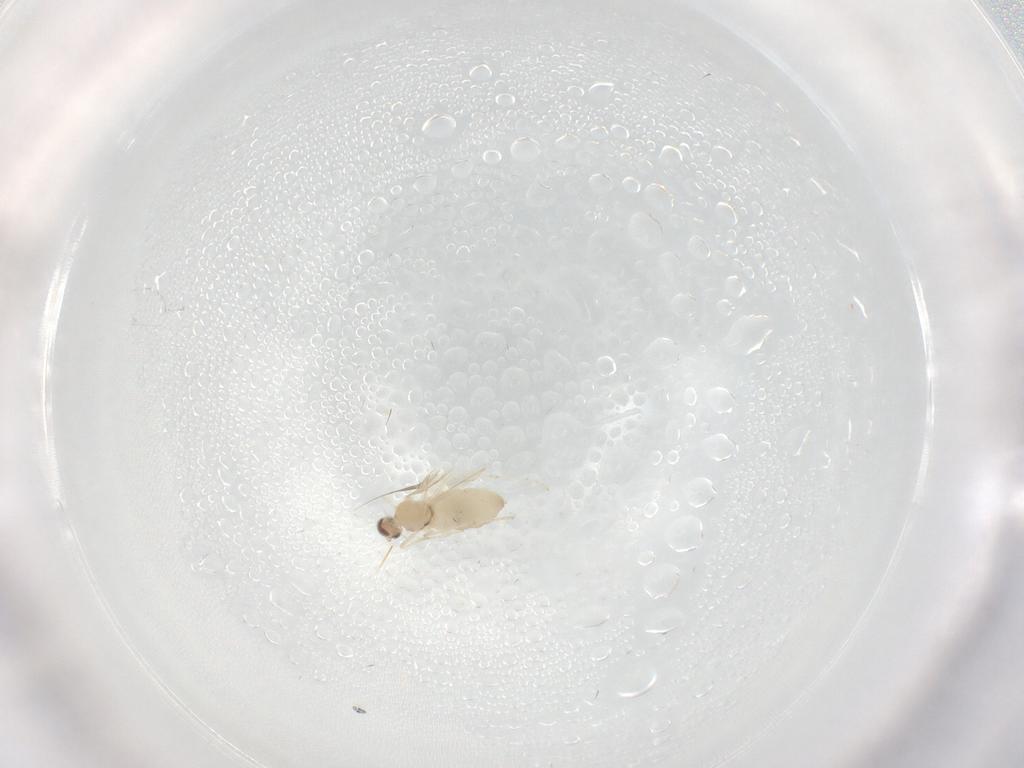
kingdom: Animalia
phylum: Arthropoda
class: Insecta
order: Diptera
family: Cecidomyiidae
